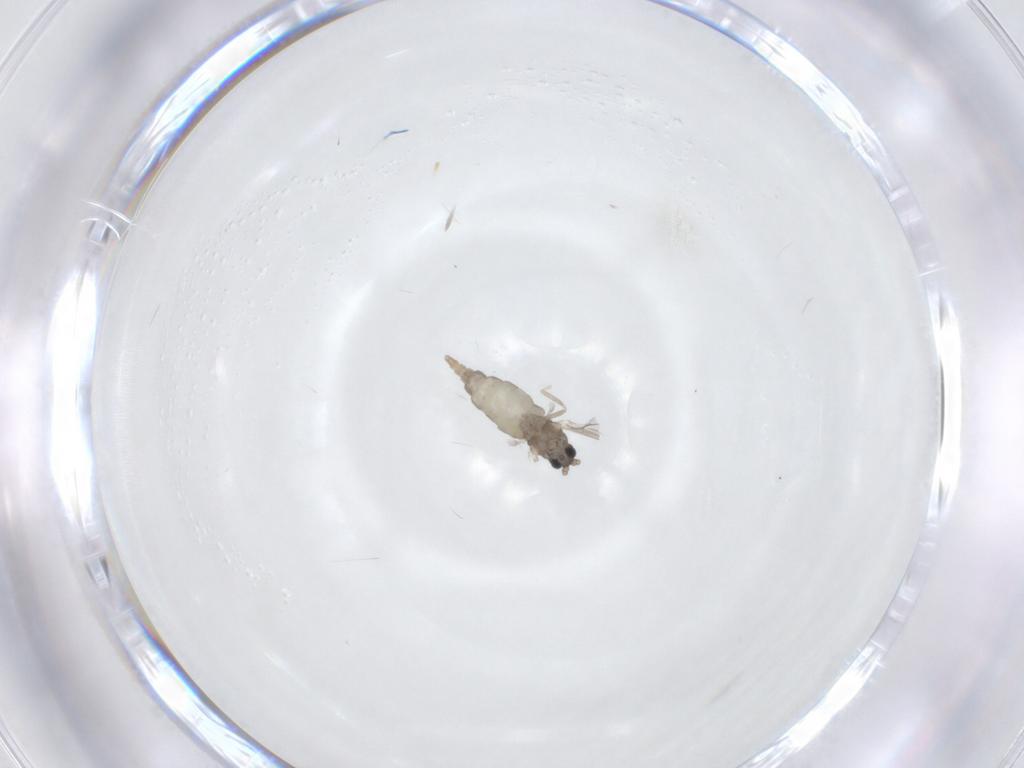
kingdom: Animalia
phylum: Arthropoda
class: Insecta
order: Diptera
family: Cecidomyiidae
